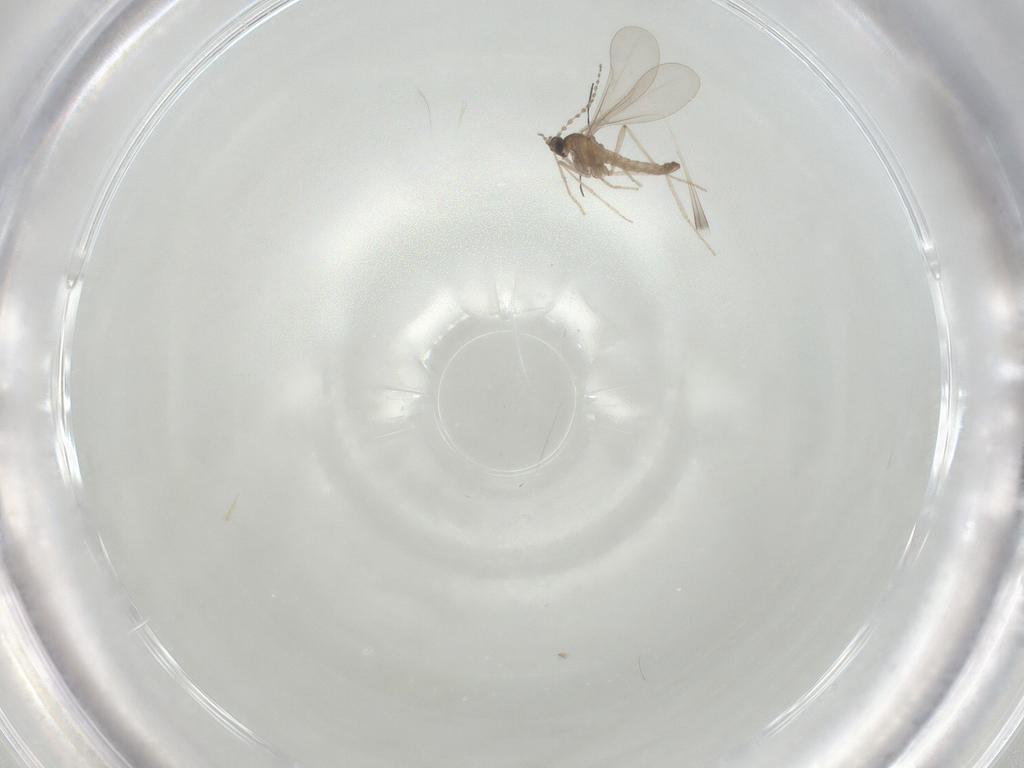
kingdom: Animalia
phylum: Arthropoda
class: Insecta
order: Diptera
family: Cecidomyiidae
